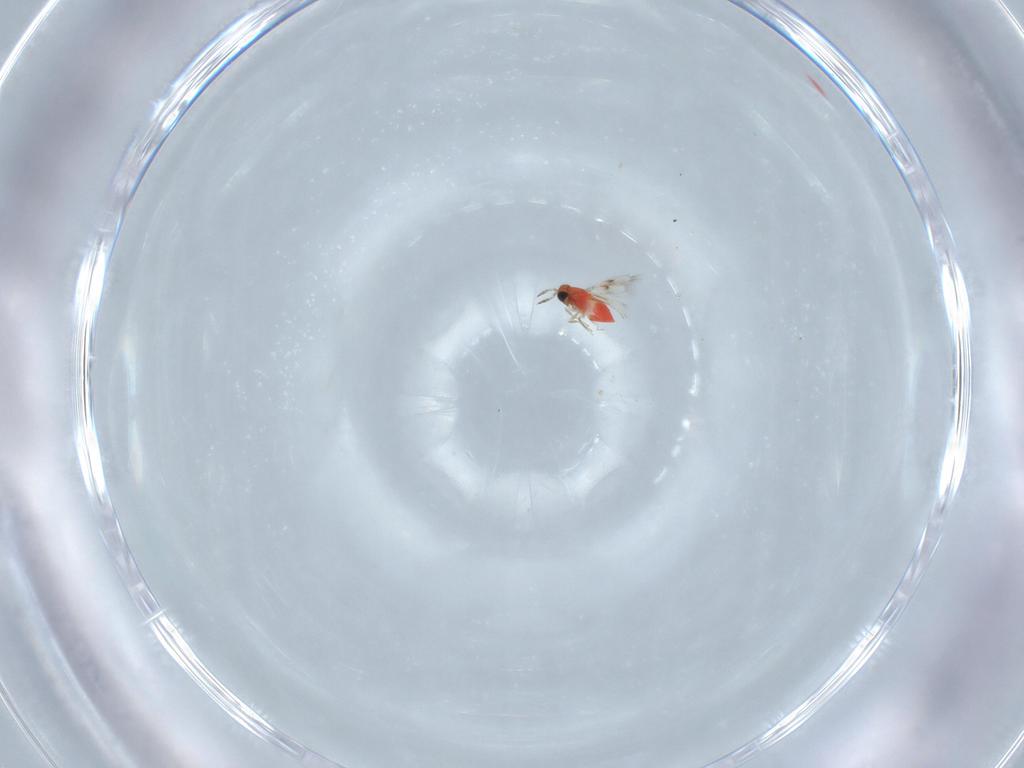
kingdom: Animalia
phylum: Arthropoda
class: Insecta
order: Hymenoptera
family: Trichogrammatidae
